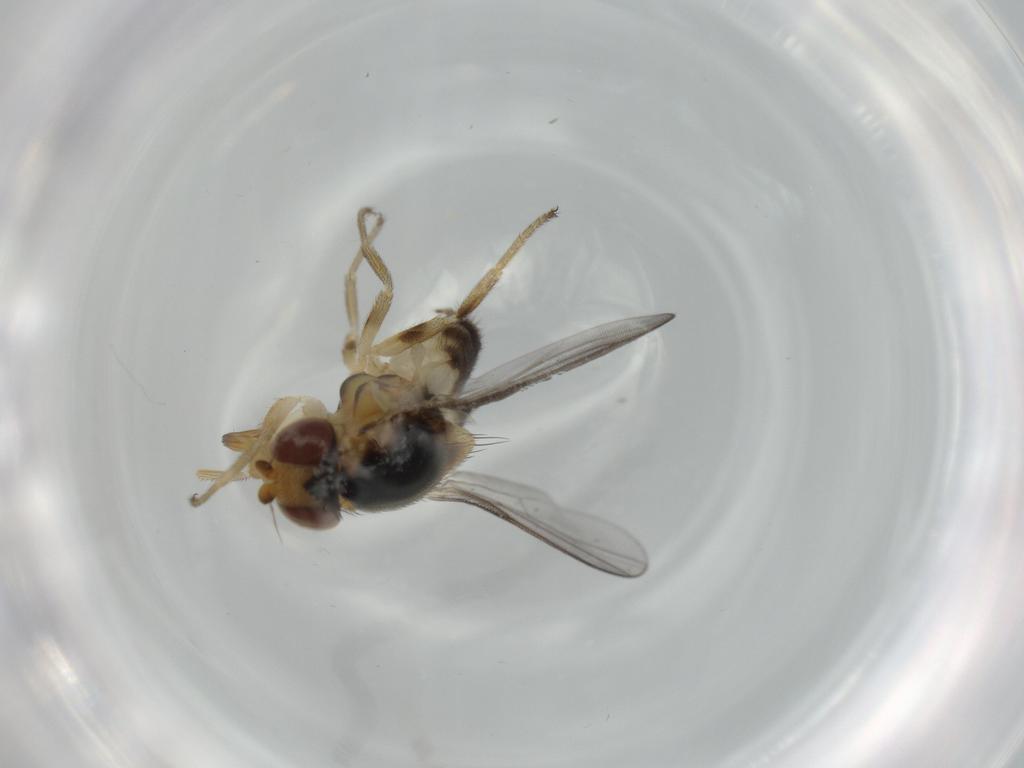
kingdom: Animalia
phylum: Arthropoda
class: Insecta
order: Diptera
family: Chloropidae
